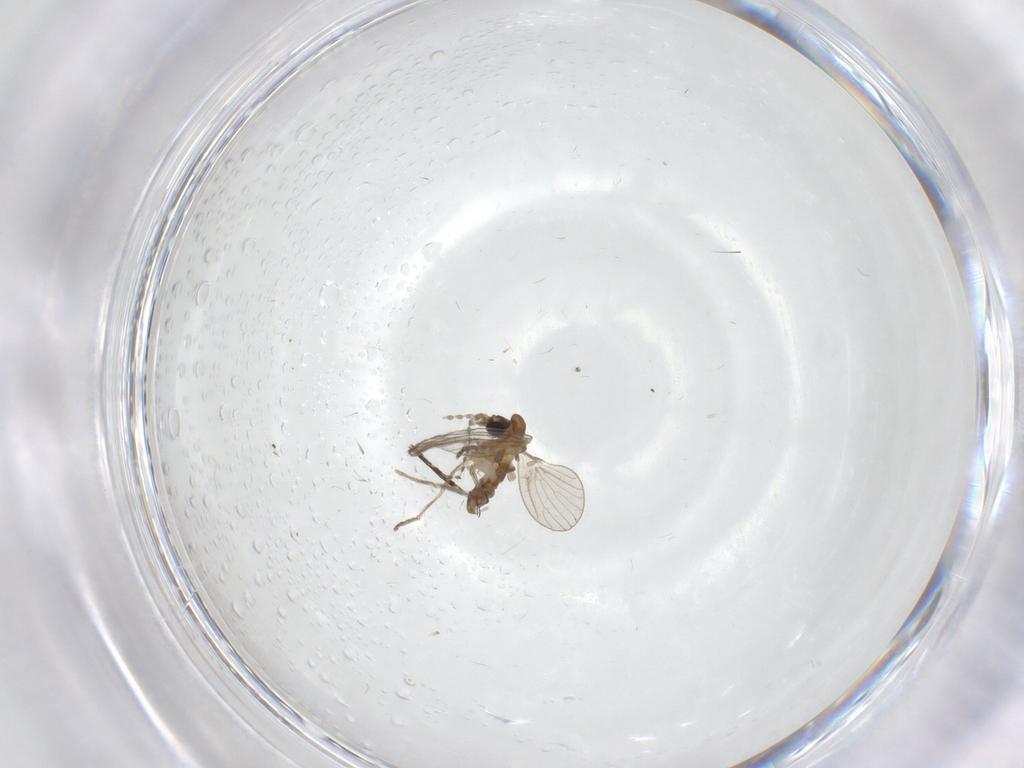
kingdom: Animalia
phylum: Arthropoda
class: Insecta
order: Diptera
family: Cecidomyiidae
